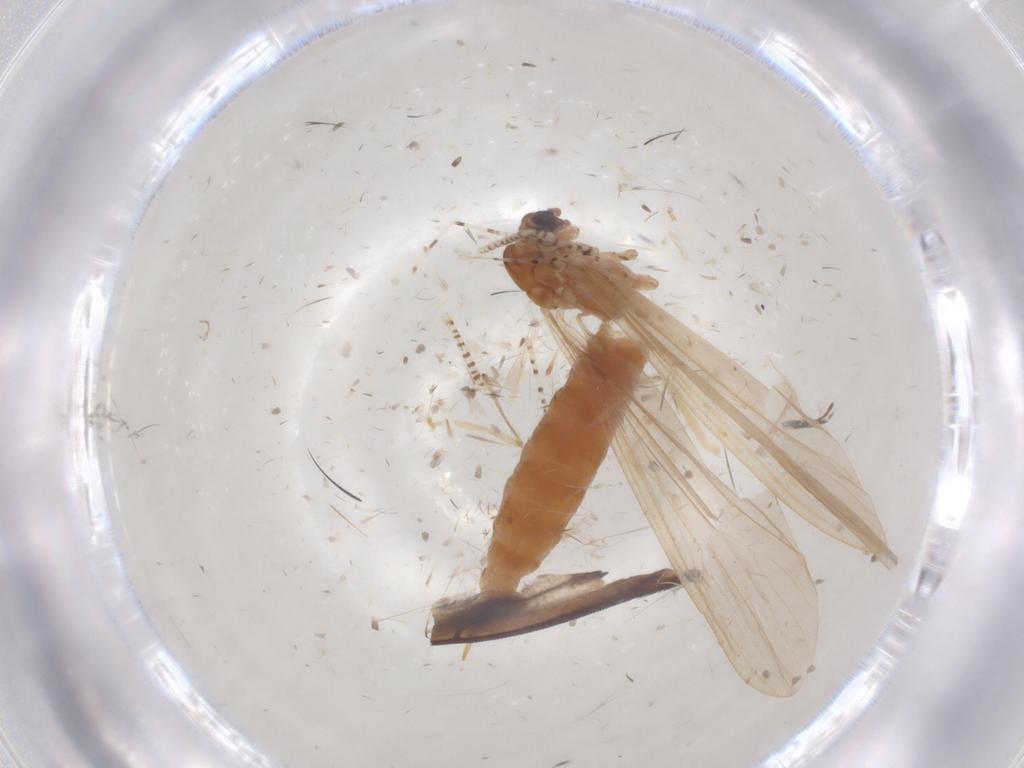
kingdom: Animalia
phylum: Arthropoda
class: Insecta
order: Diptera
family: Ceratopogonidae
